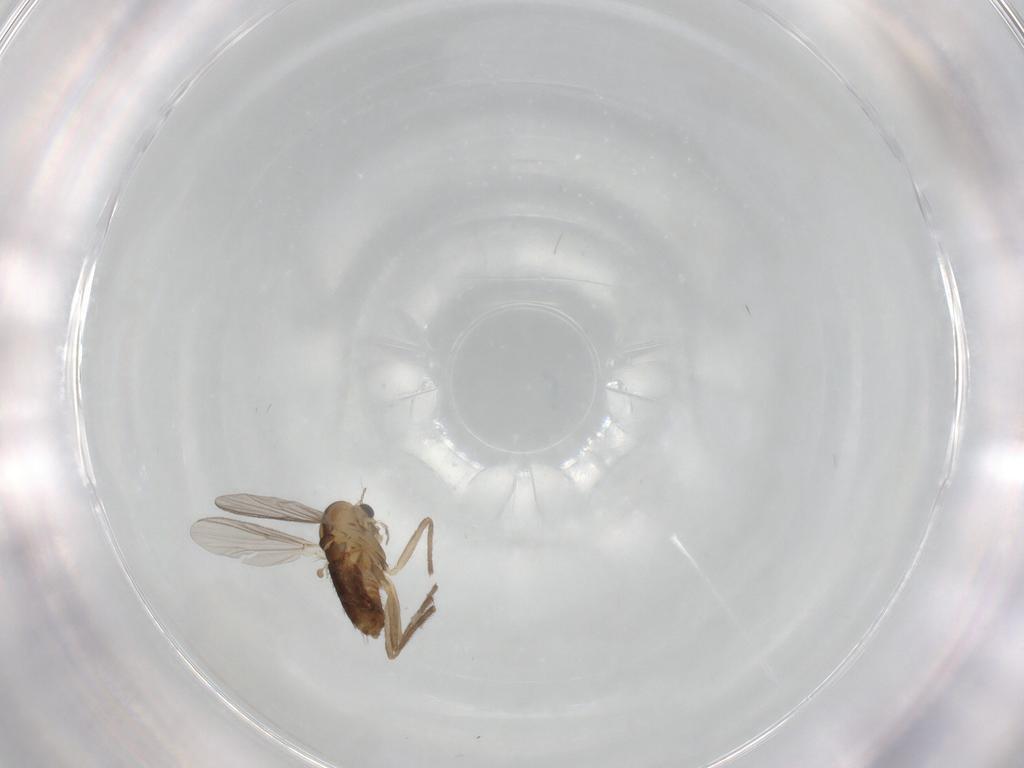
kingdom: Animalia
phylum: Arthropoda
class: Insecta
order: Diptera
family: Chironomidae
